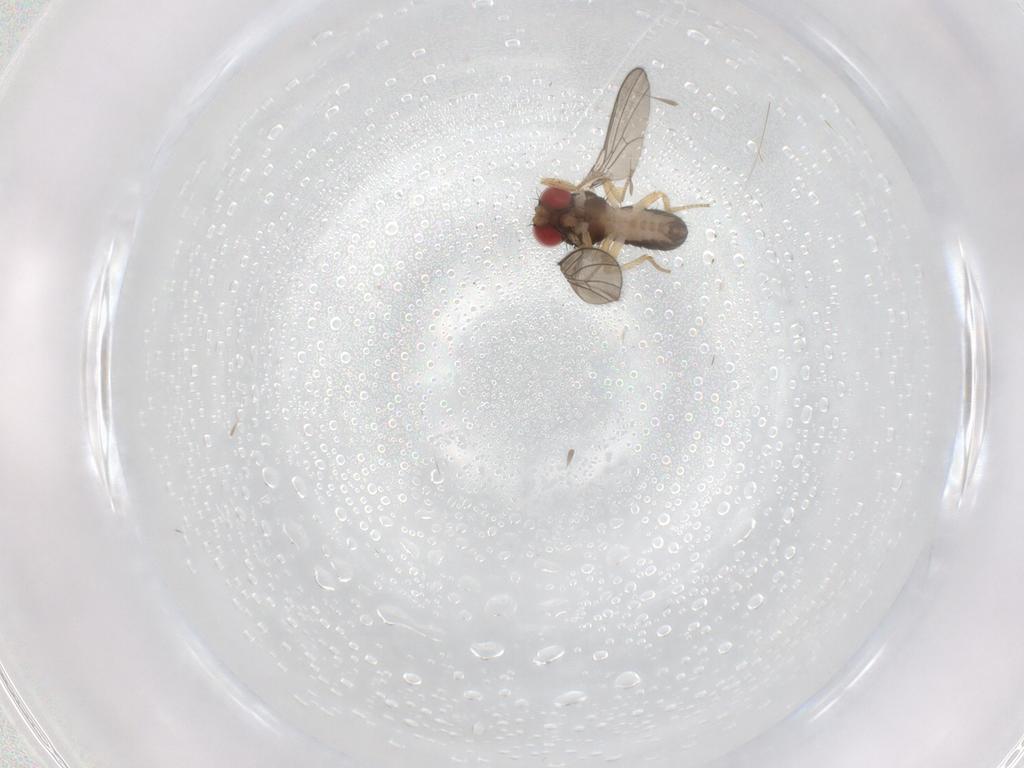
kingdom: Animalia
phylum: Arthropoda
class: Insecta
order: Diptera
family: Drosophilidae
